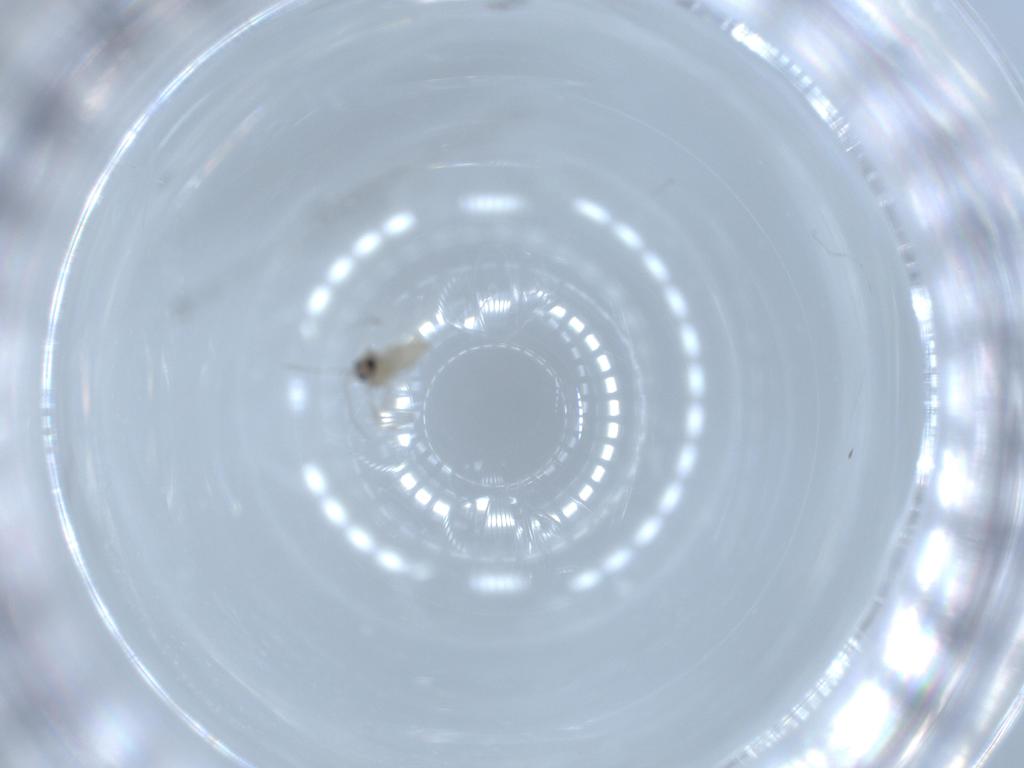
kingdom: Animalia
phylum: Arthropoda
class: Insecta
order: Diptera
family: Cecidomyiidae
